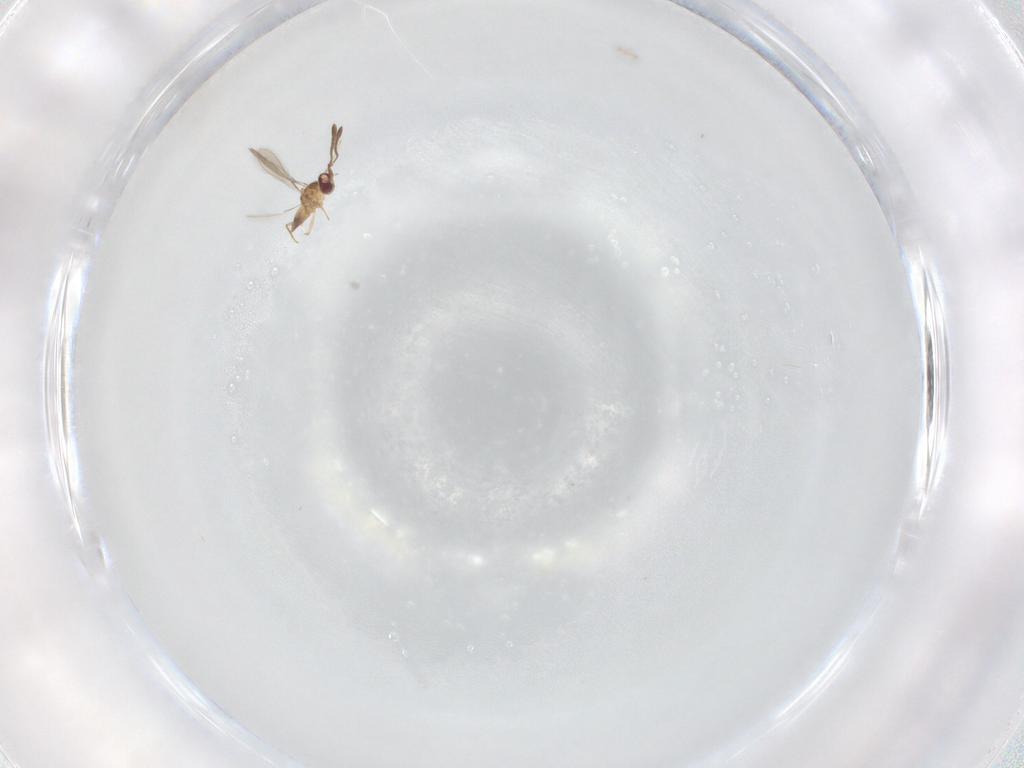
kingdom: Animalia
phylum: Arthropoda
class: Insecta
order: Hymenoptera
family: Mymaridae
